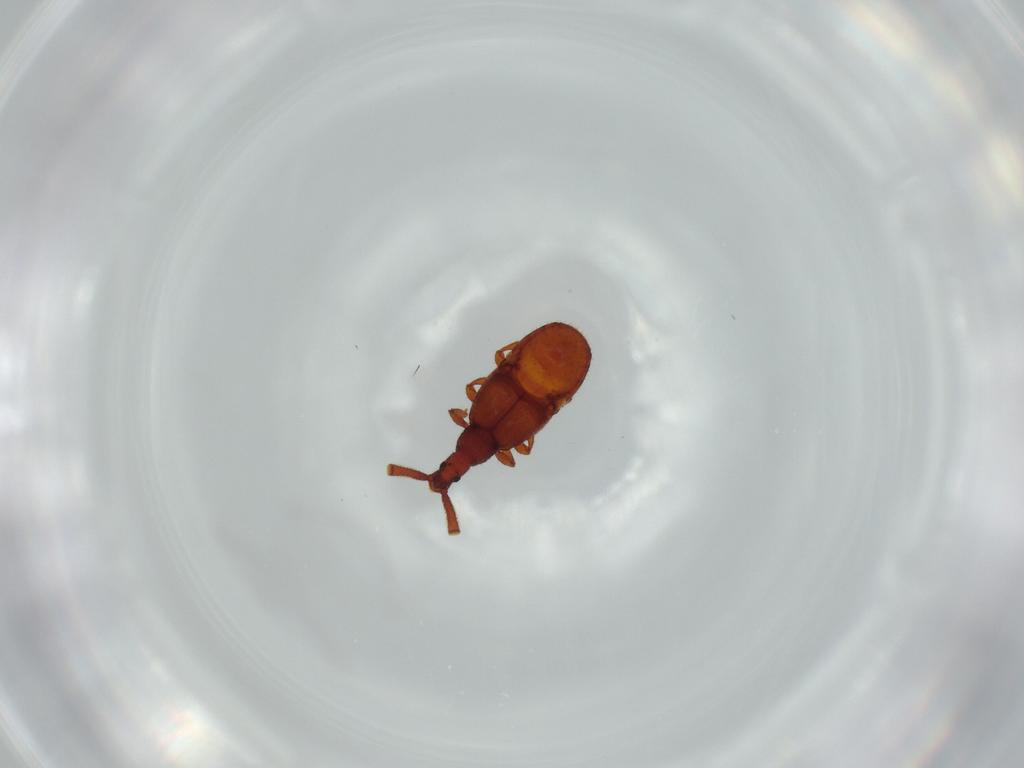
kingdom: Animalia
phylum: Arthropoda
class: Insecta
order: Coleoptera
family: Staphylinidae
